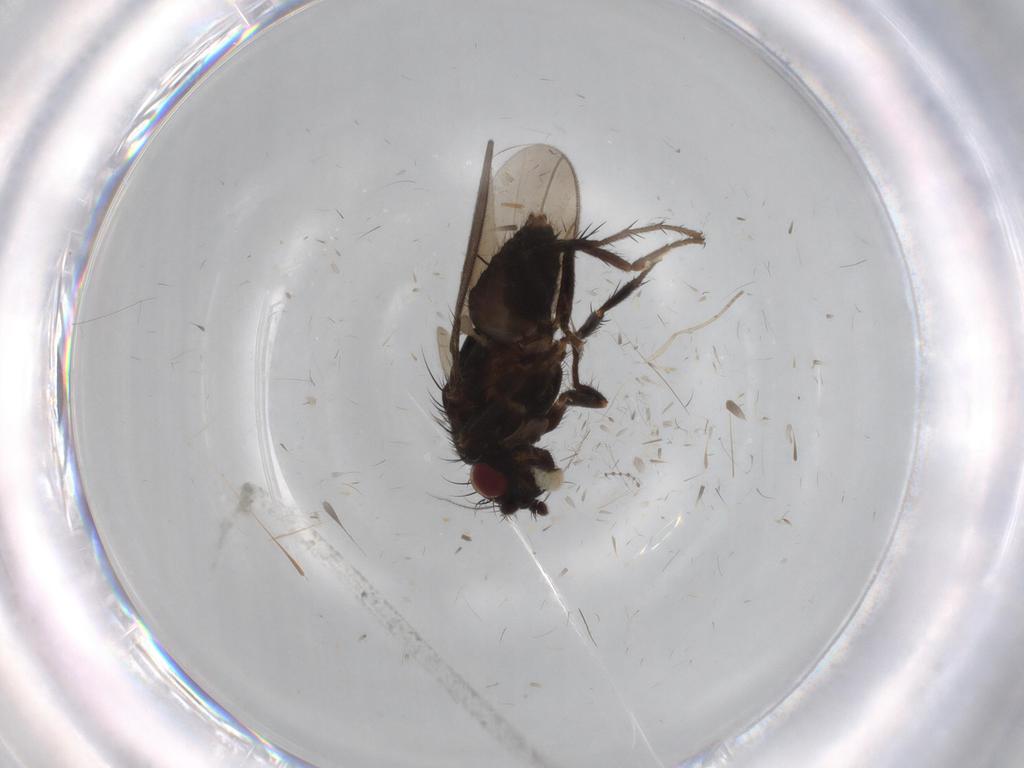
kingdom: Animalia
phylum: Arthropoda
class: Insecta
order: Diptera
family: Sphaeroceridae
